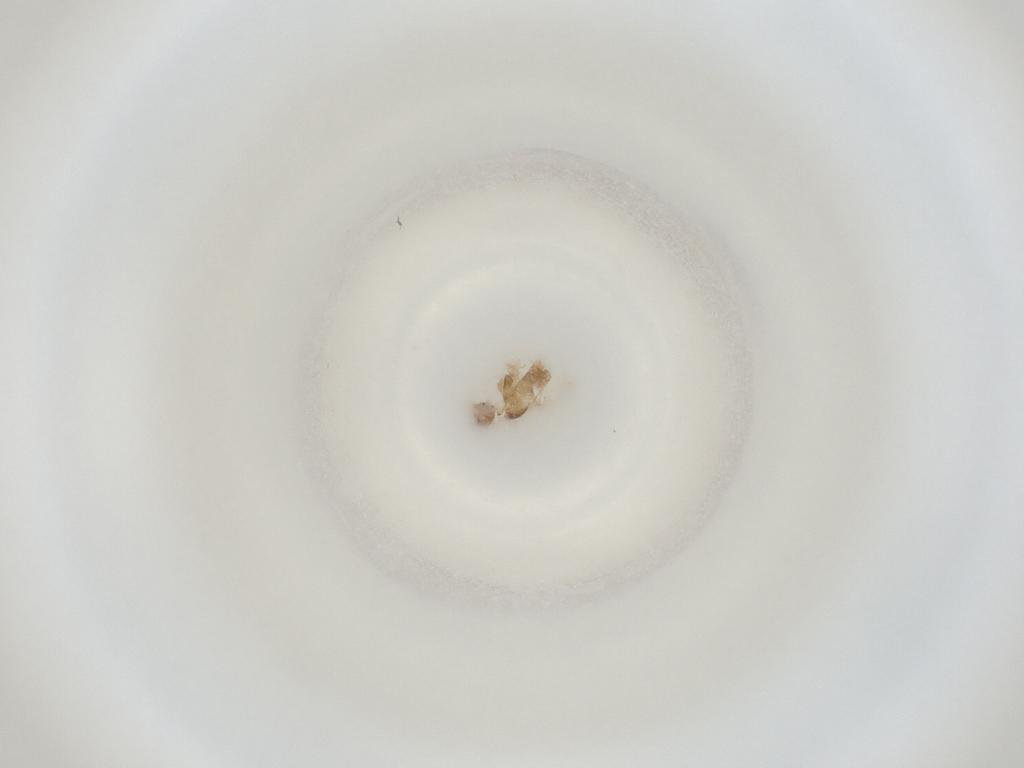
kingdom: Animalia
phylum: Arthropoda
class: Insecta
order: Diptera
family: Cecidomyiidae
